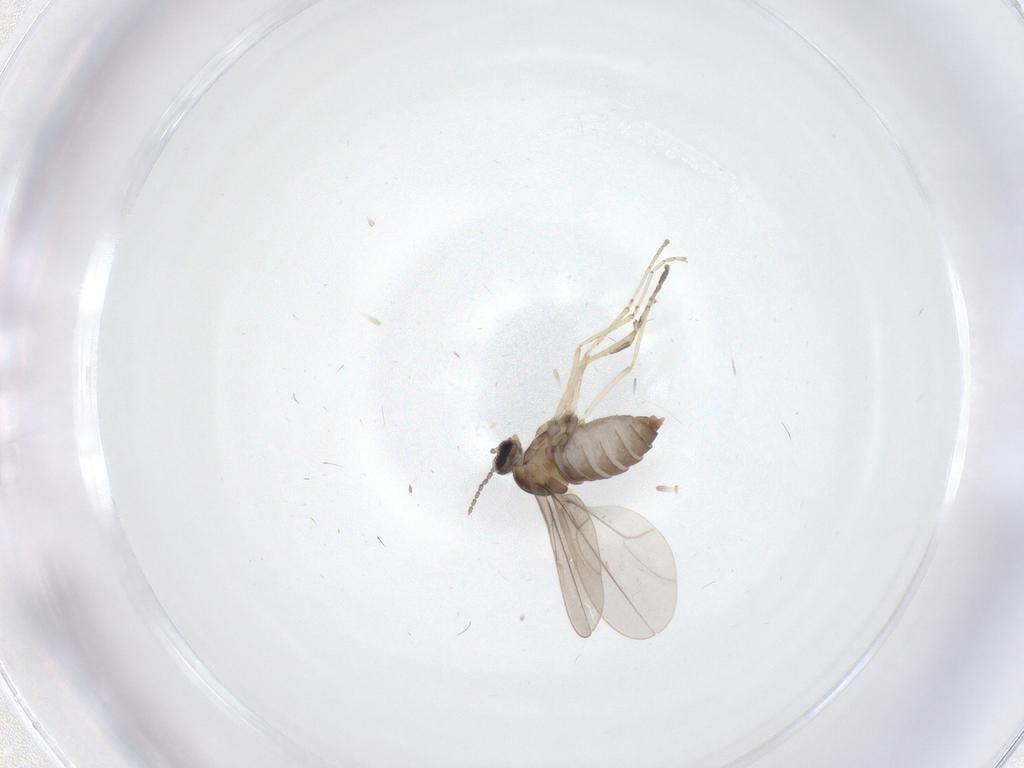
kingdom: Animalia
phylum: Arthropoda
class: Insecta
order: Diptera
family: Cecidomyiidae
